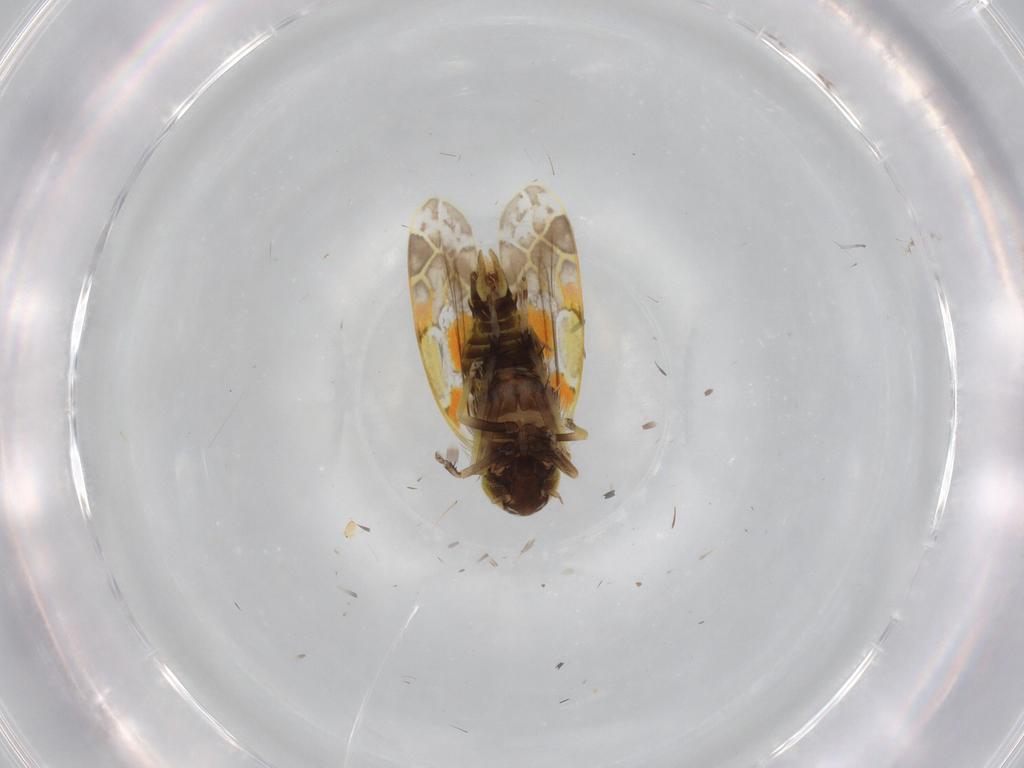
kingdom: Animalia
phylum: Arthropoda
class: Insecta
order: Hemiptera
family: Cicadellidae
